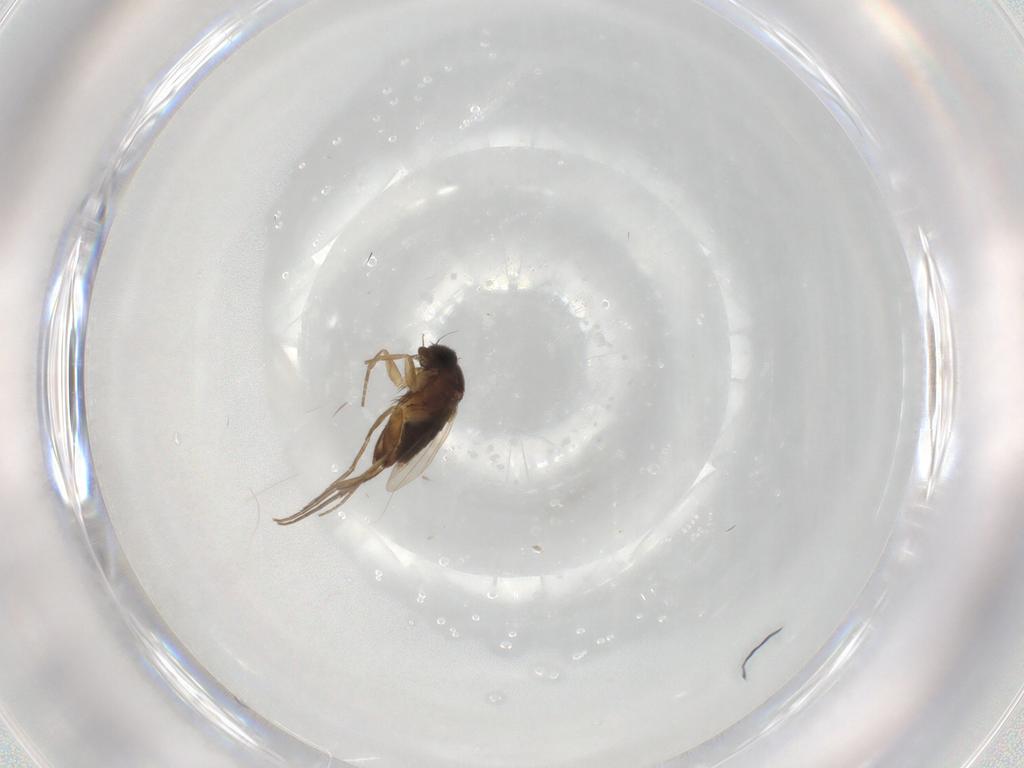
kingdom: Animalia
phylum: Arthropoda
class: Insecta
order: Diptera
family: Phoridae
